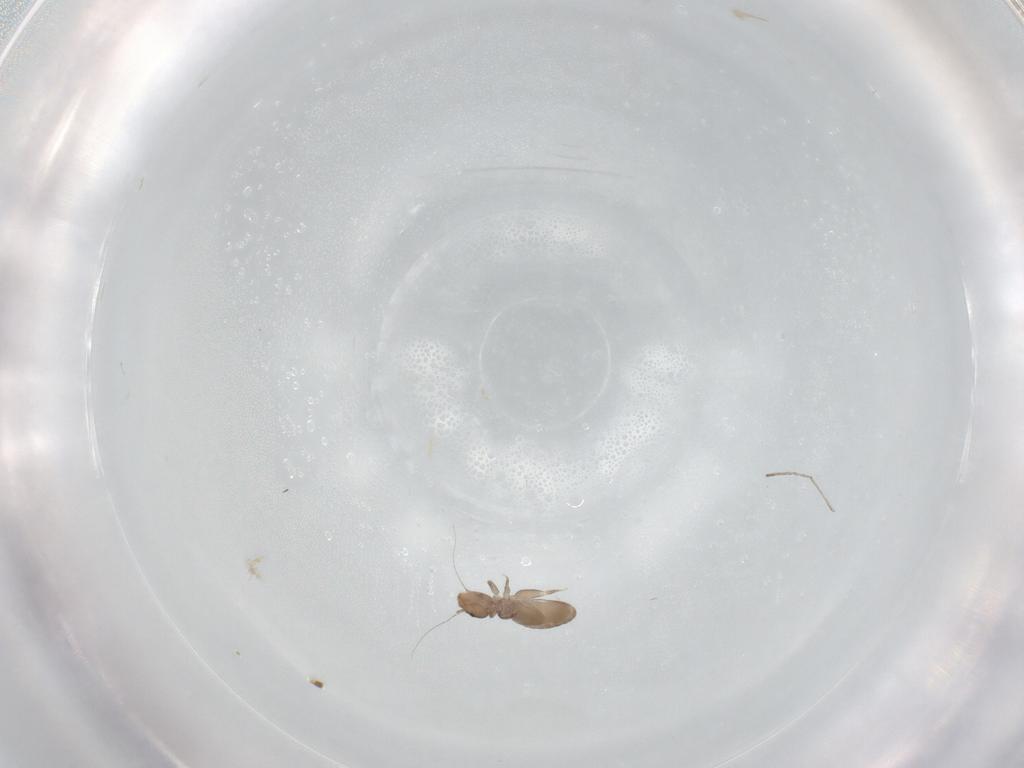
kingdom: Animalia
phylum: Arthropoda
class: Insecta
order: Psocodea
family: Liposcelididae
